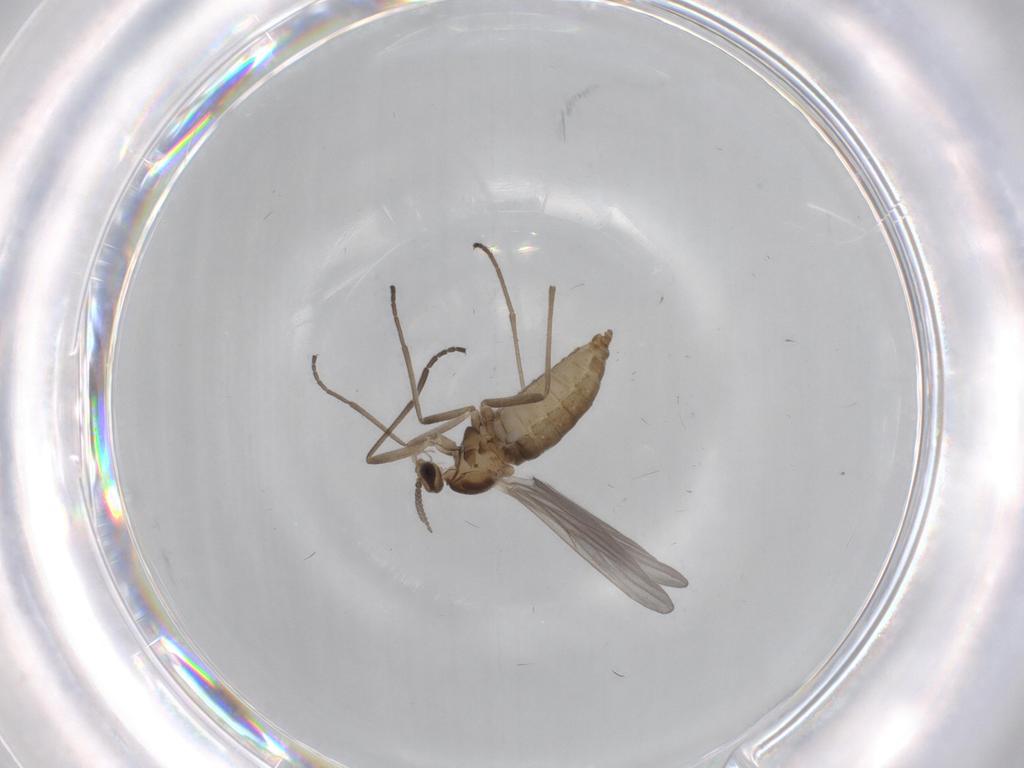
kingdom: Animalia
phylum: Arthropoda
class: Insecta
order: Diptera
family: Cecidomyiidae
